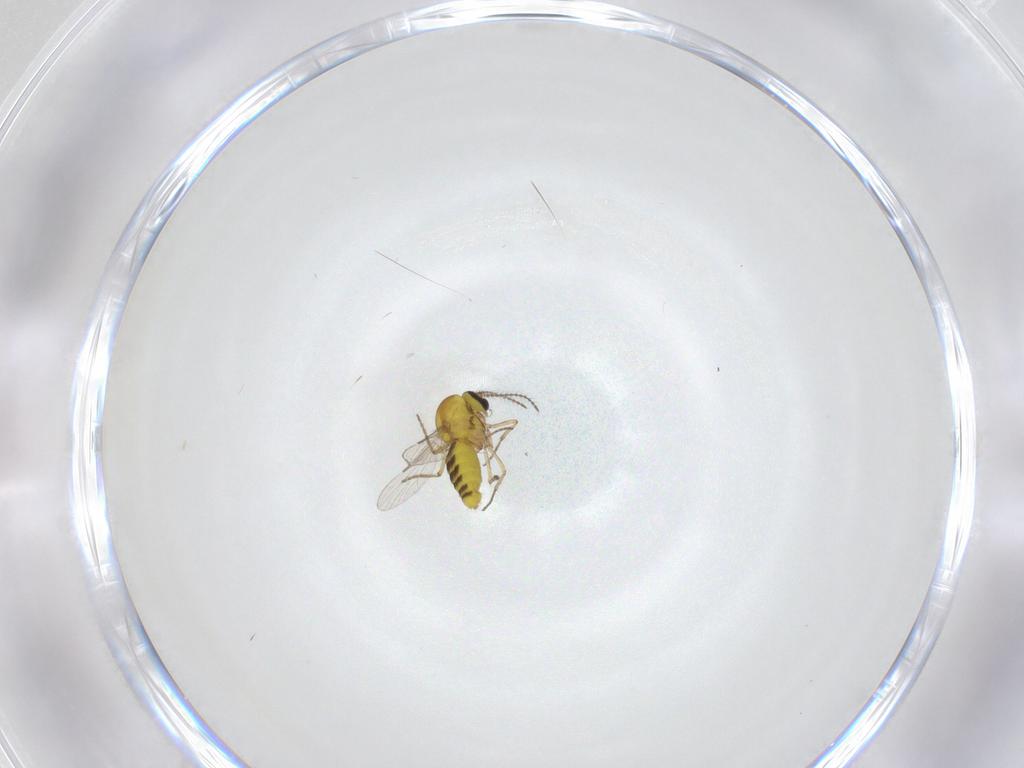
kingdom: Animalia
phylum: Arthropoda
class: Insecta
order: Diptera
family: Ceratopogonidae
